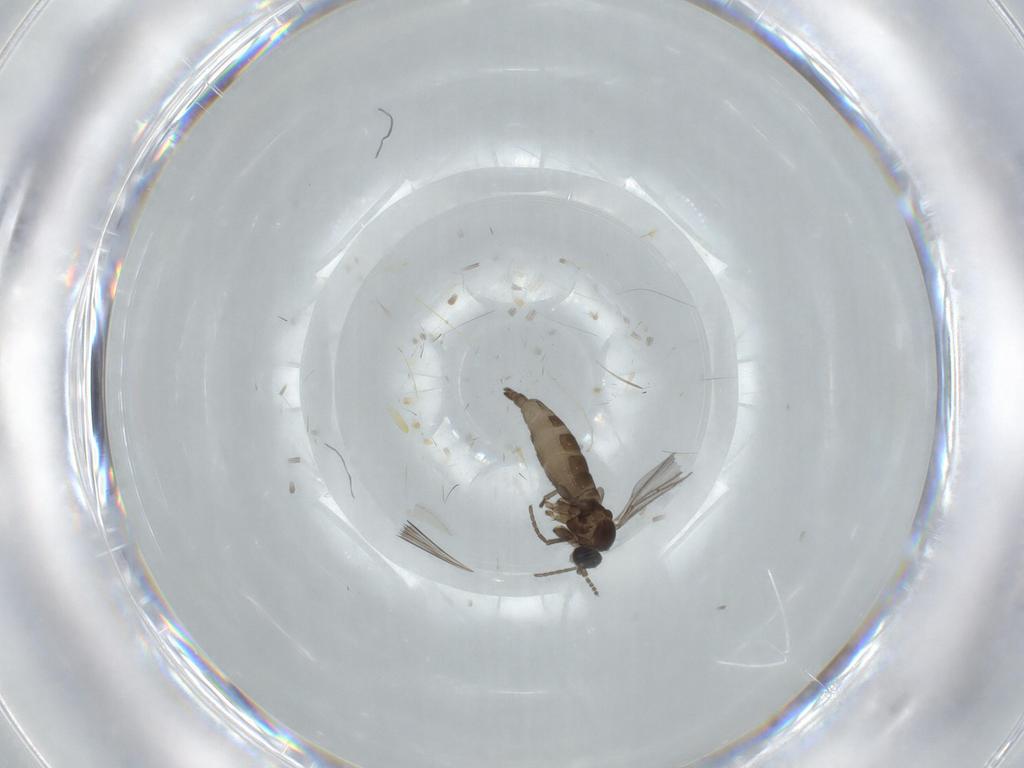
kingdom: Animalia
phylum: Arthropoda
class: Insecta
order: Diptera
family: Cecidomyiidae
